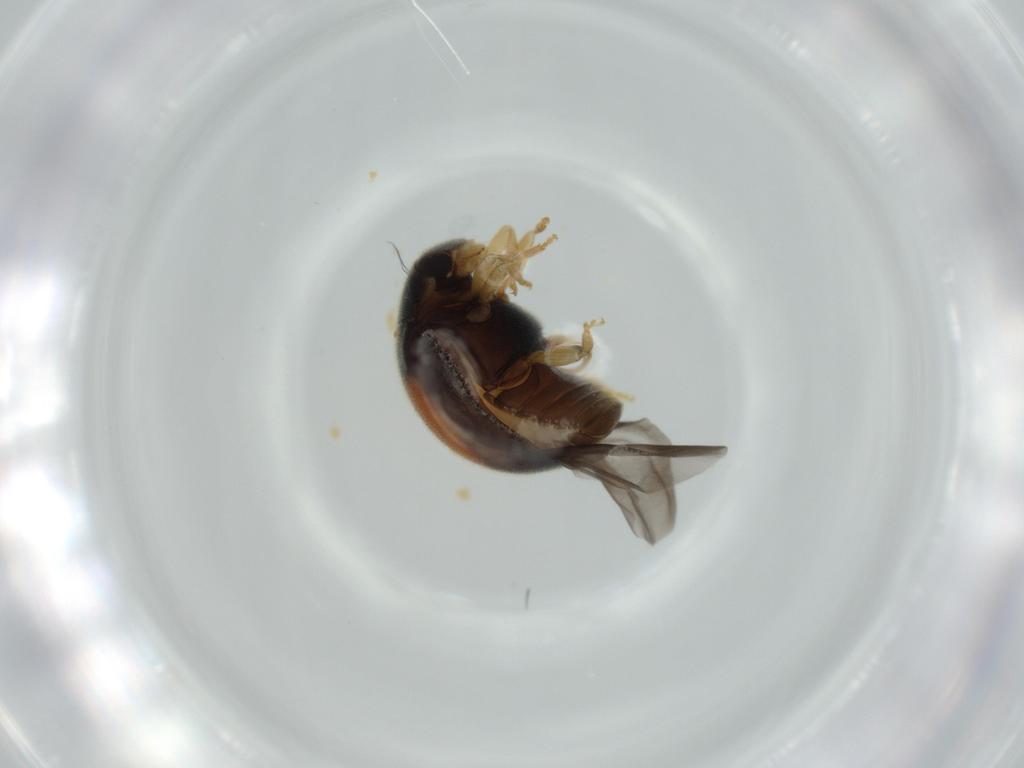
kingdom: Animalia
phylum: Arthropoda
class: Insecta
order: Coleoptera
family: Coccinellidae
